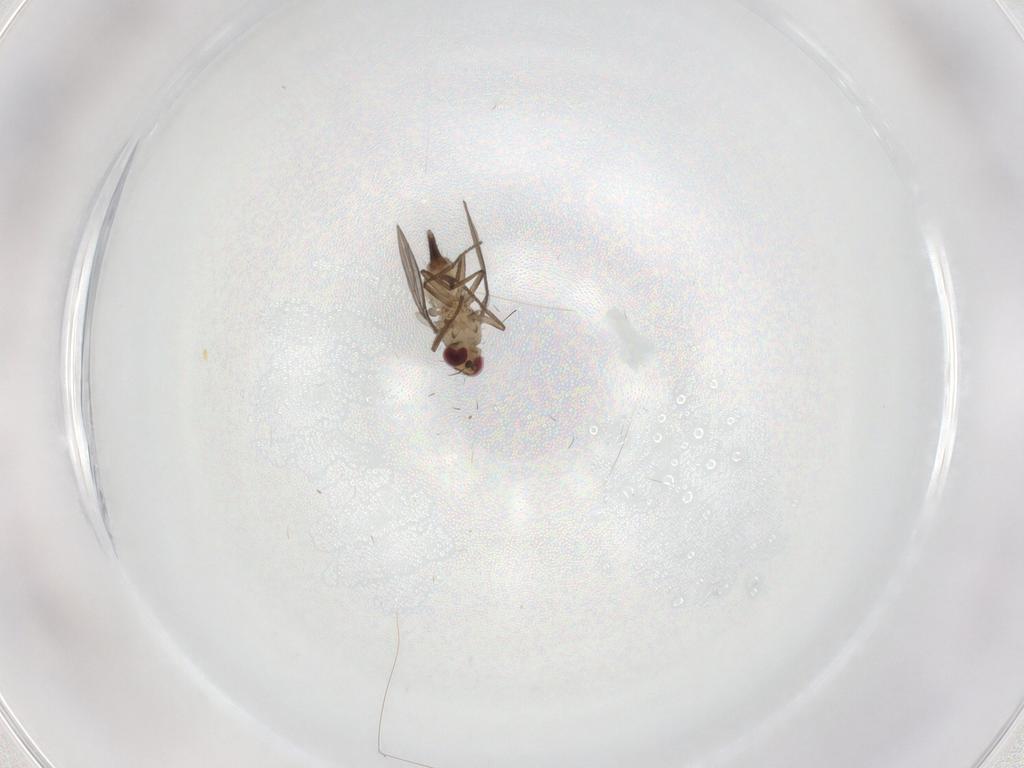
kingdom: Animalia
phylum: Arthropoda
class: Insecta
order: Diptera
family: Agromyzidae
